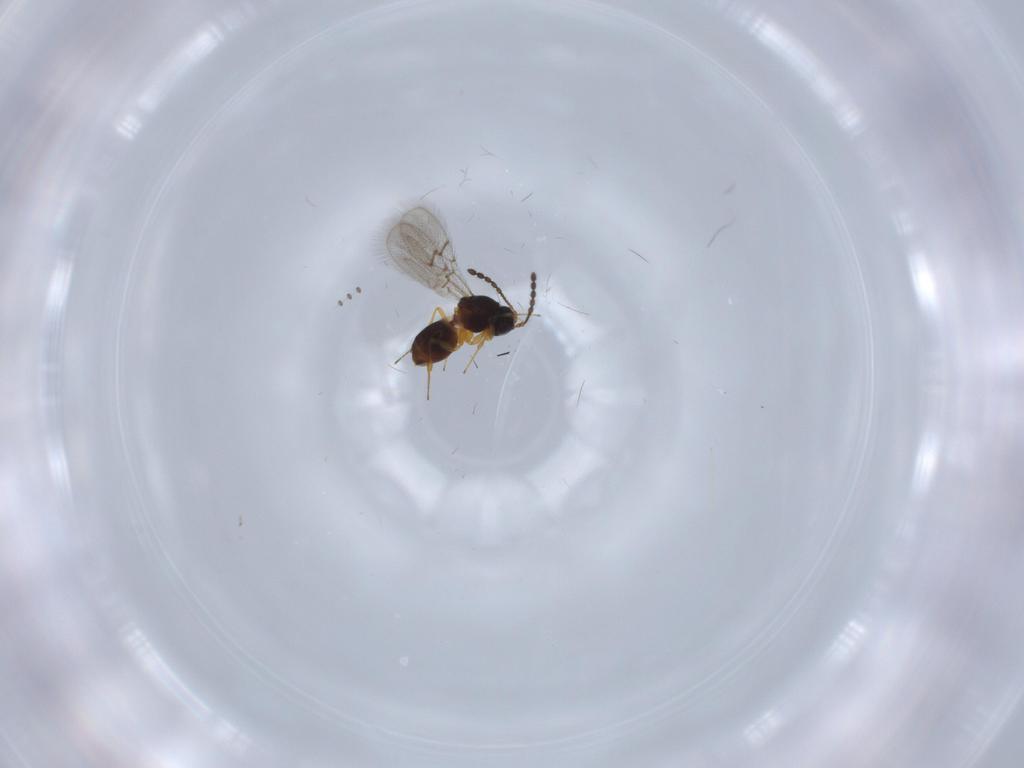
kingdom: Animalia
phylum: Arthropoda
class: Insecta
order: Hymenoptera
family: Figitidae
